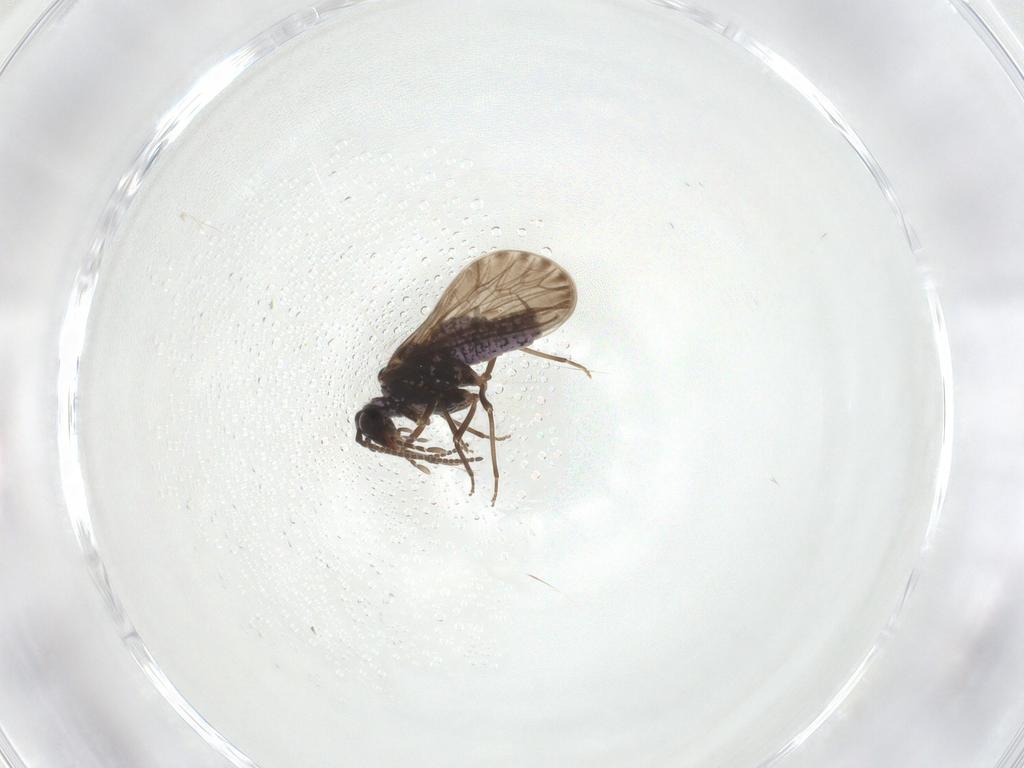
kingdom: Animalia
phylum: Arthropoda
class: Insecta
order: Neuroptera
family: Coniopterygidae
